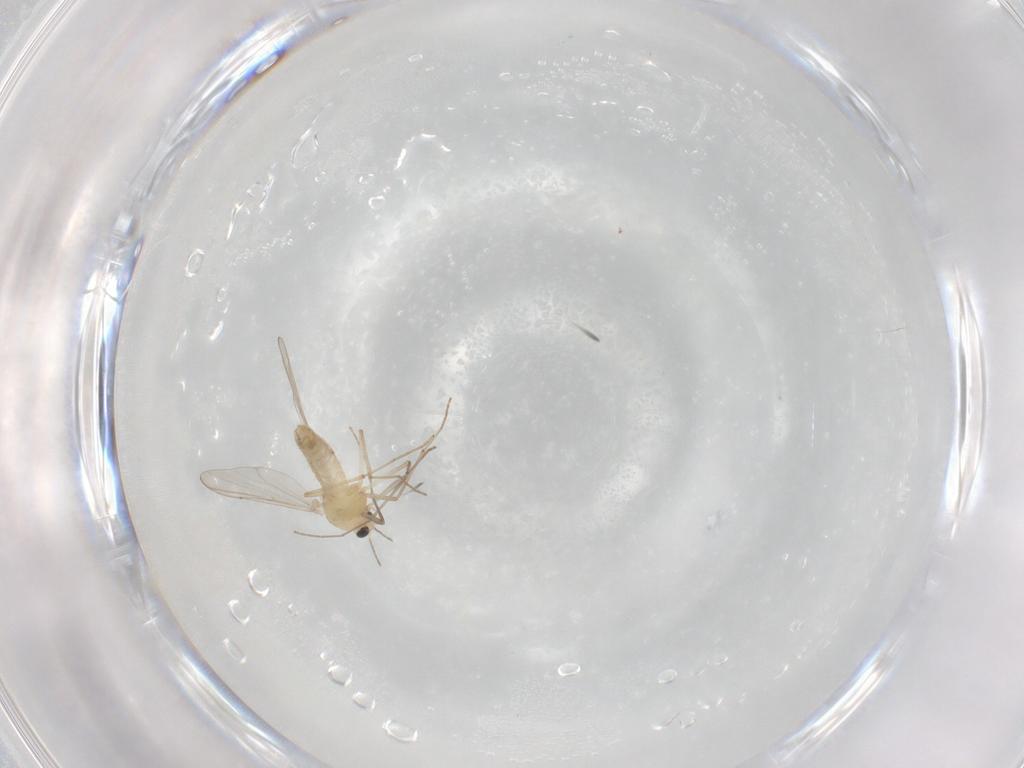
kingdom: Animalia
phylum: Arthropoda
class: Insecta
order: Diptera
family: Chironomidae
